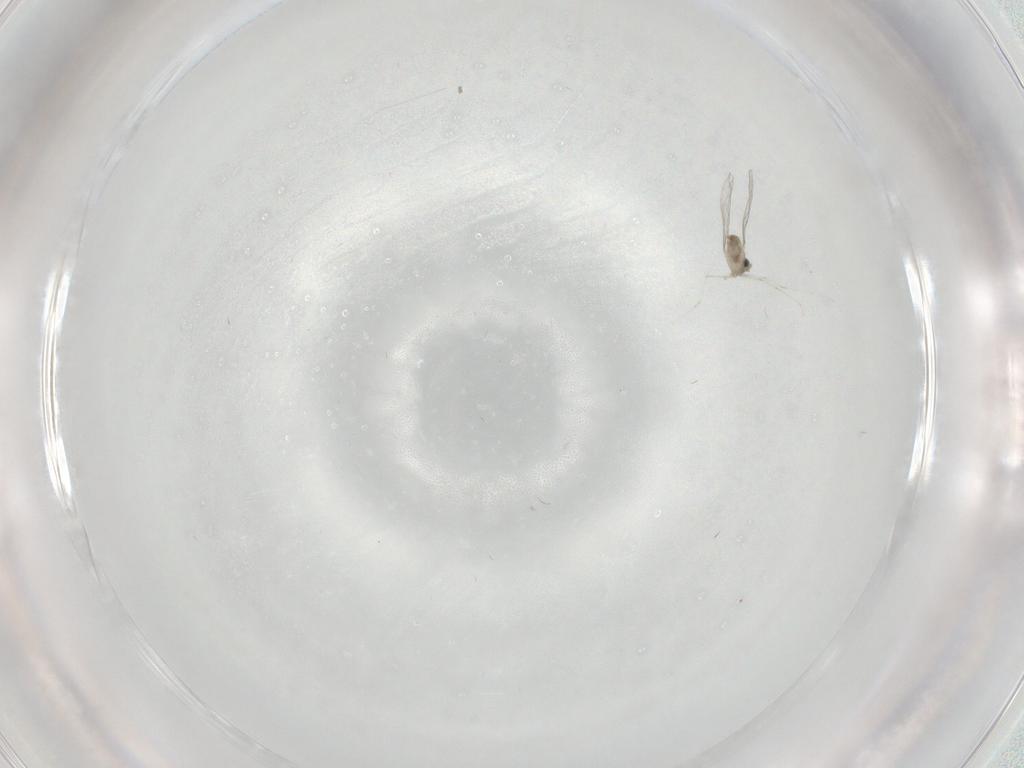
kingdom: Animalia
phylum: Arthropoda
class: Insecta
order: Diptera
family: Cecidomyiidae
